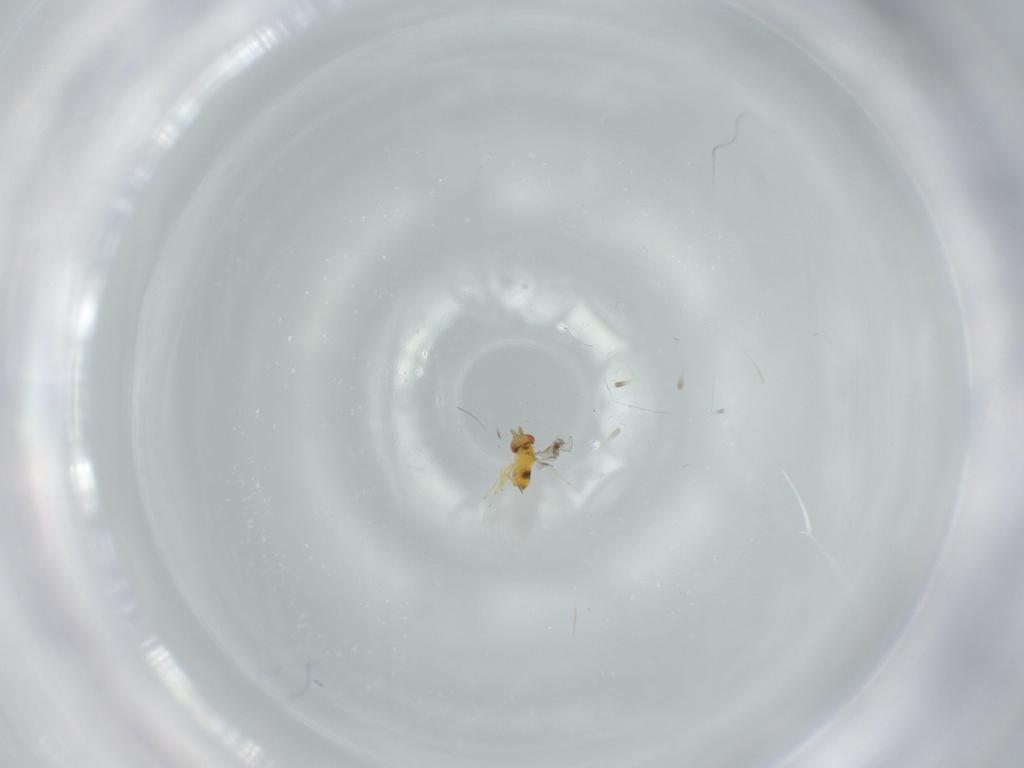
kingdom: Animalia
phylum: Arthropoda
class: Insecta
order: Hymenoptera
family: Trichogrammatidae
